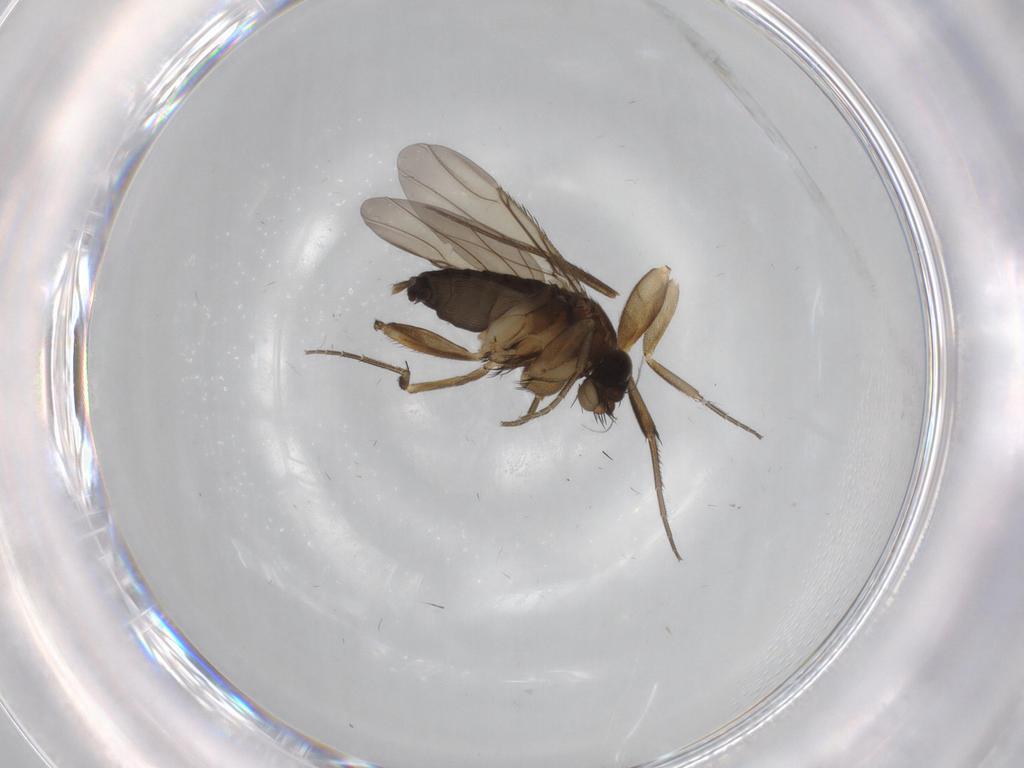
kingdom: Animalia
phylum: Arthropoda
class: Insecta
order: Diptera
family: Phoridae
